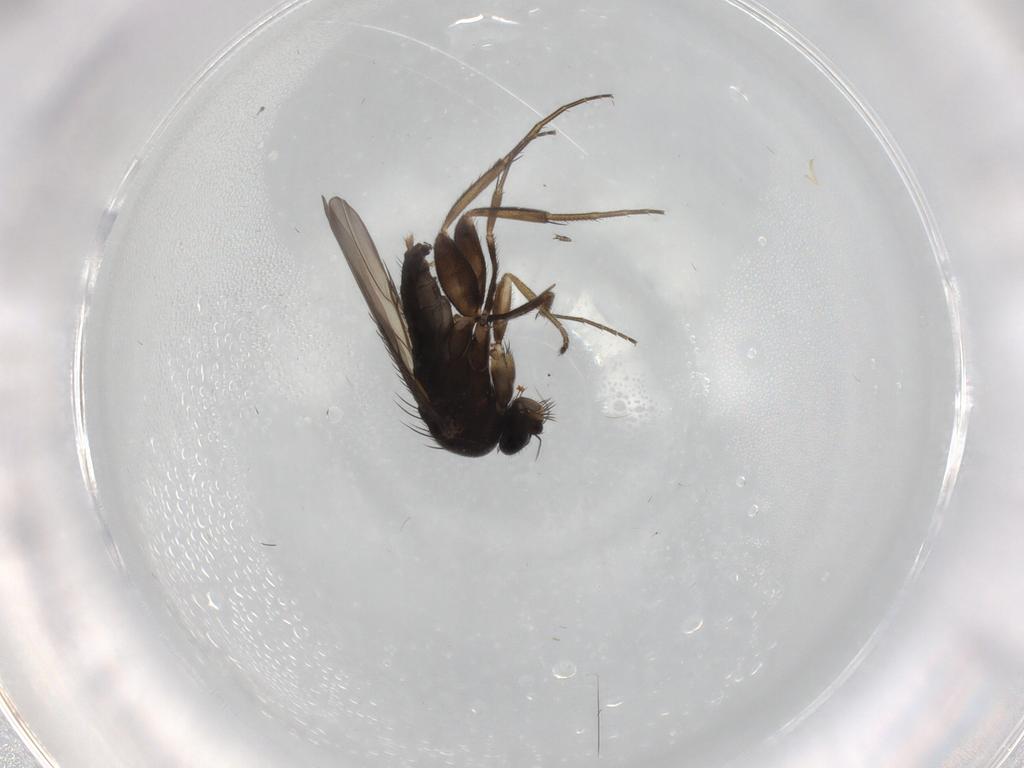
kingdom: Animalia
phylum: Arthropoda
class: Insecta
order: Diptera
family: Phoridae
